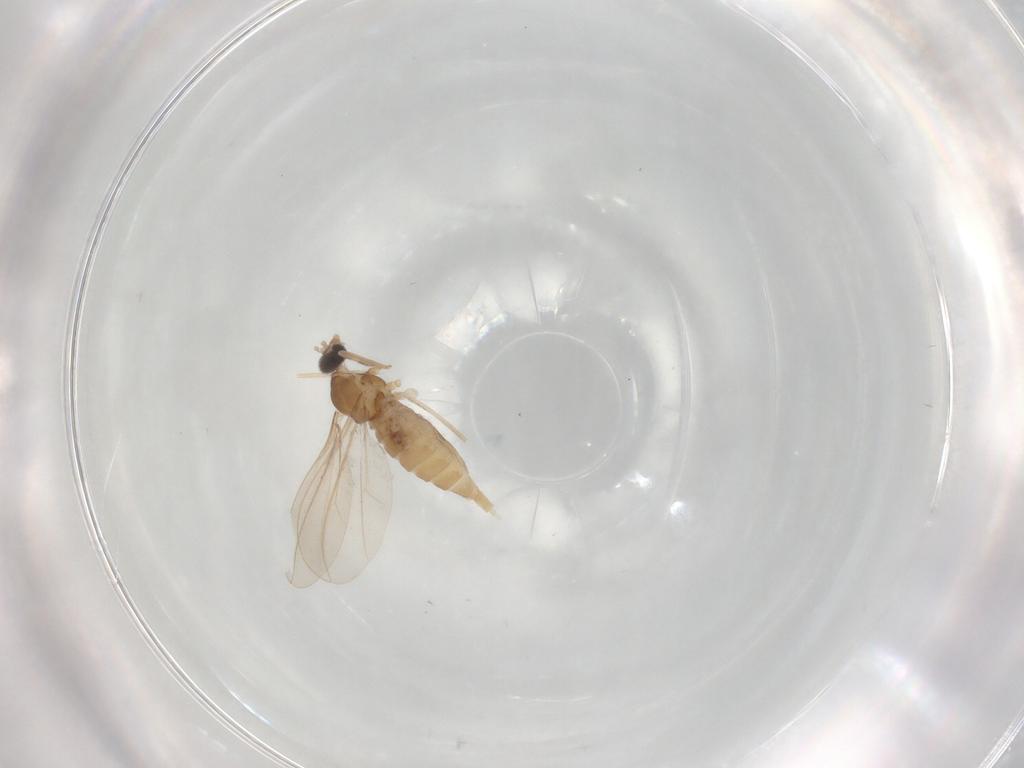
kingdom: Animalia
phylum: Arthropoda
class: Insecta
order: Diptera
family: Cecidomyiidae
